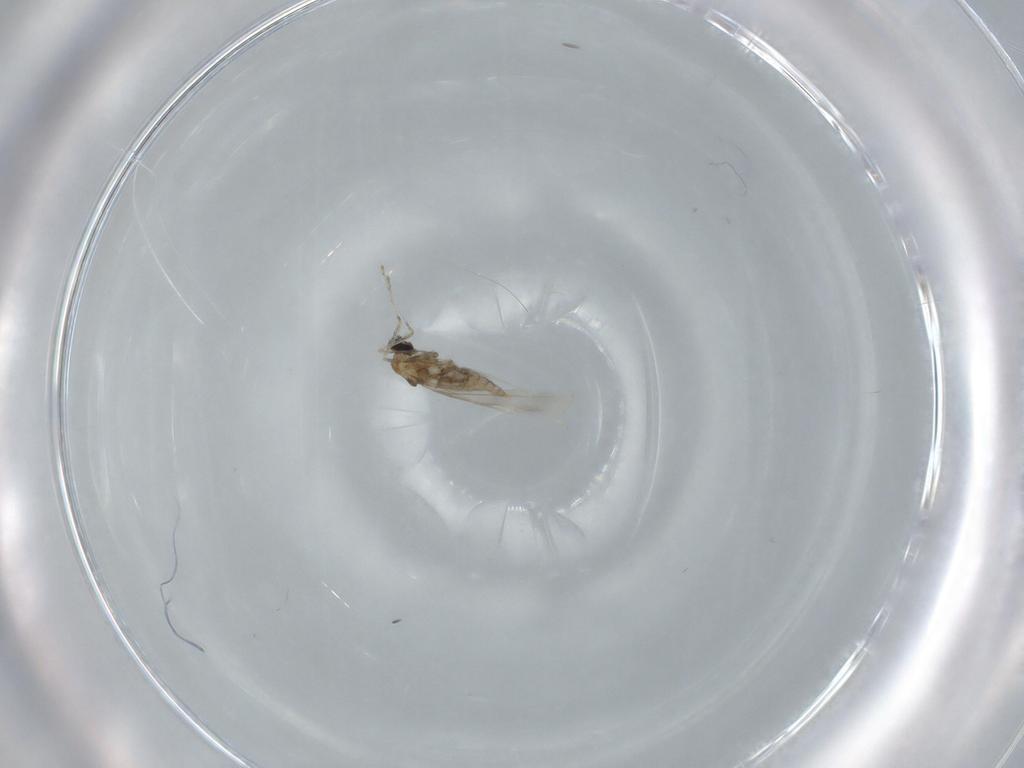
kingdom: Animalia
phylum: Arthropoda
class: Insecta
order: Diptera
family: Cecidomyiidae
